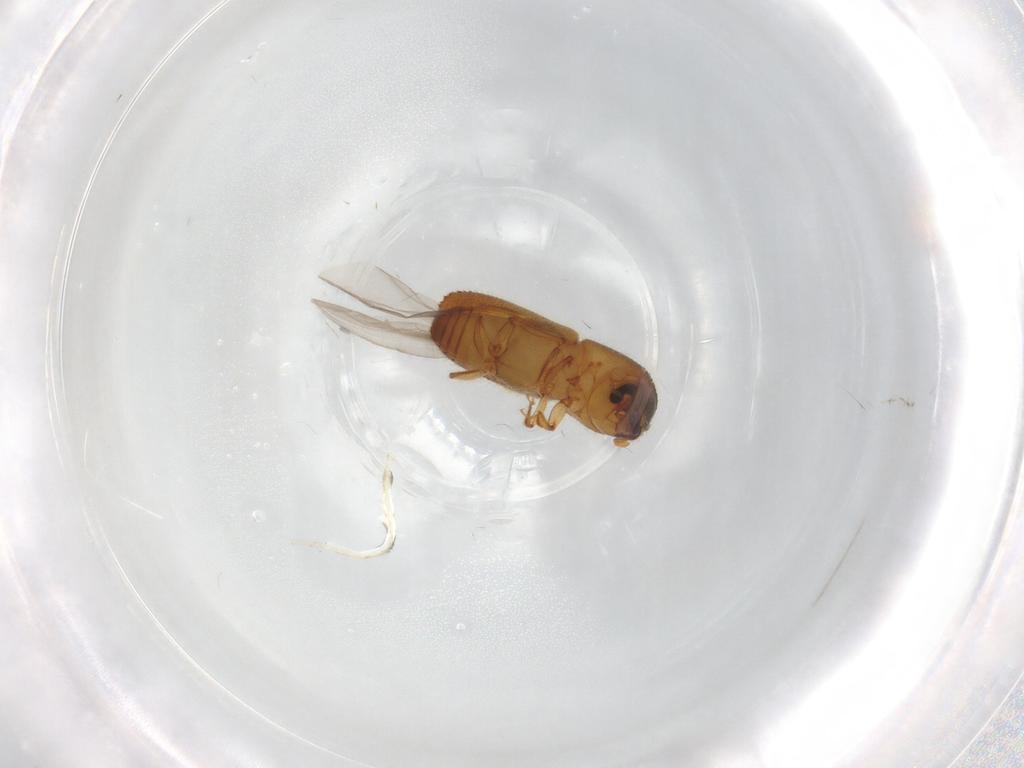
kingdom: Animalia
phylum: Arthropoda
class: Insecta
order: Coleoptera
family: Curculionidae
